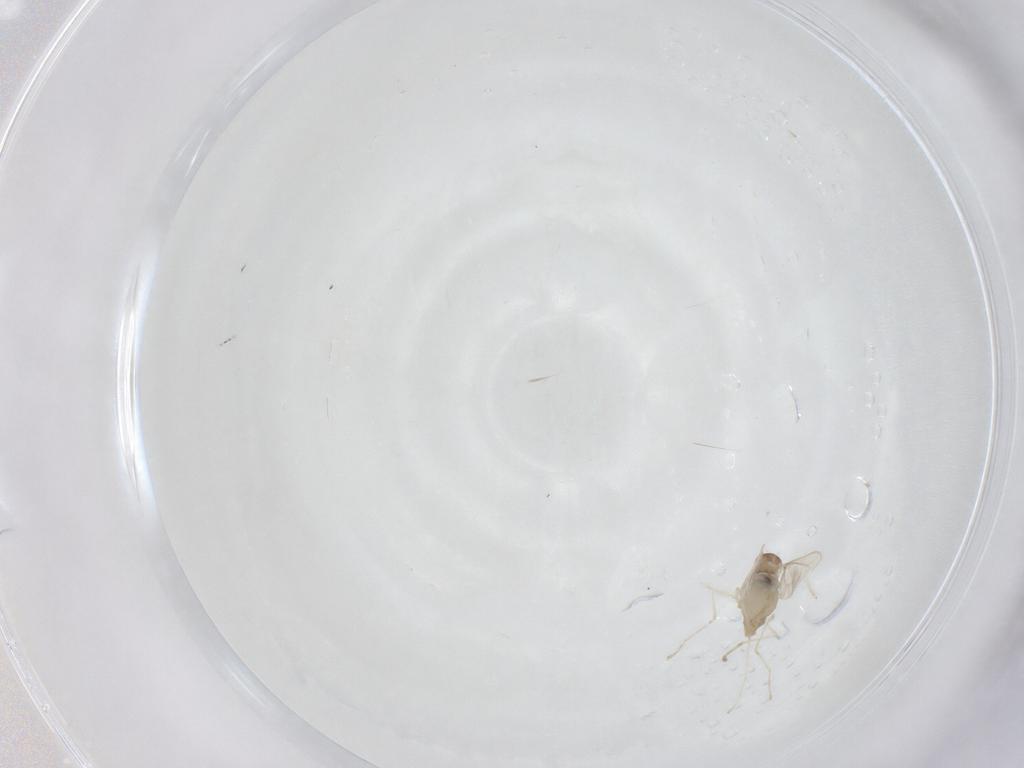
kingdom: Animalia
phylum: Arthropoda
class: Insecta
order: Diptera
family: Cecidomyiidae
